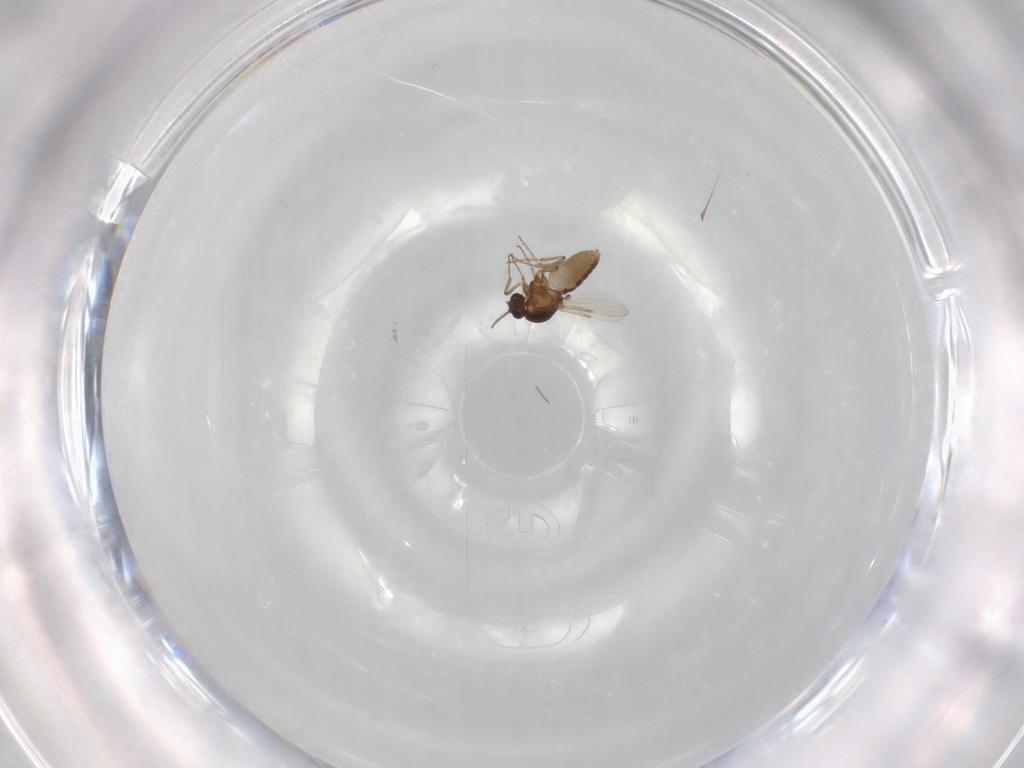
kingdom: Animalia
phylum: Arthropoda
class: Insecta
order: Diptera
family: Ceratopogonidae
